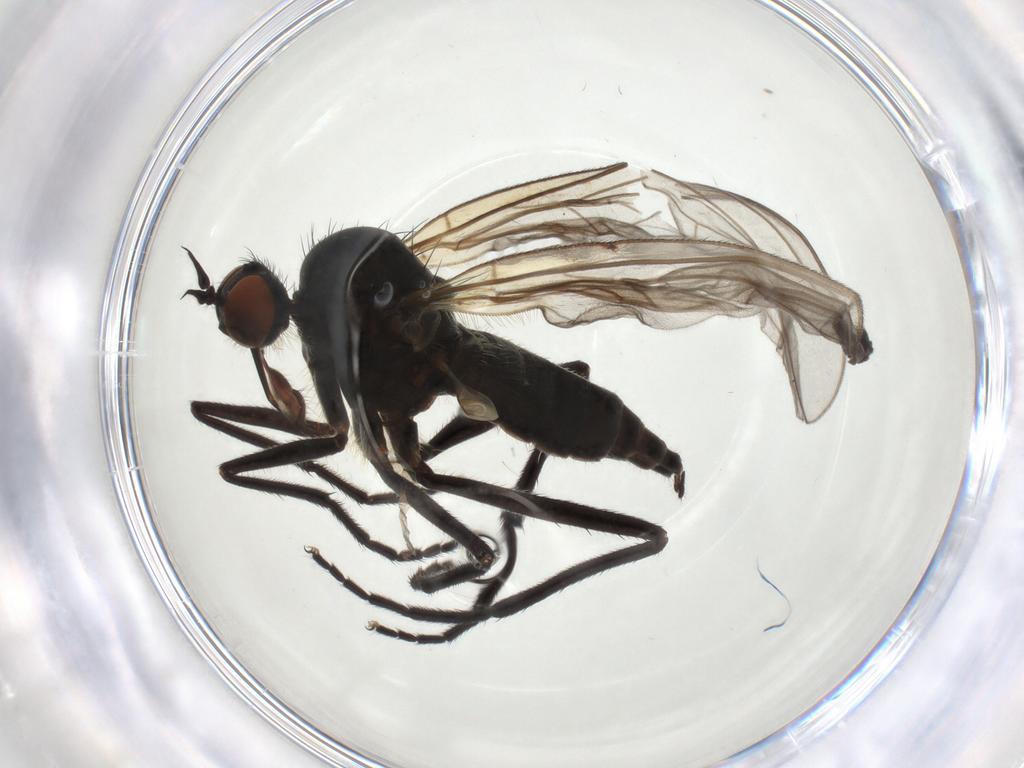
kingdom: Animalia
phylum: Arthropoda
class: Insecta
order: Diptera
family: Empididae
